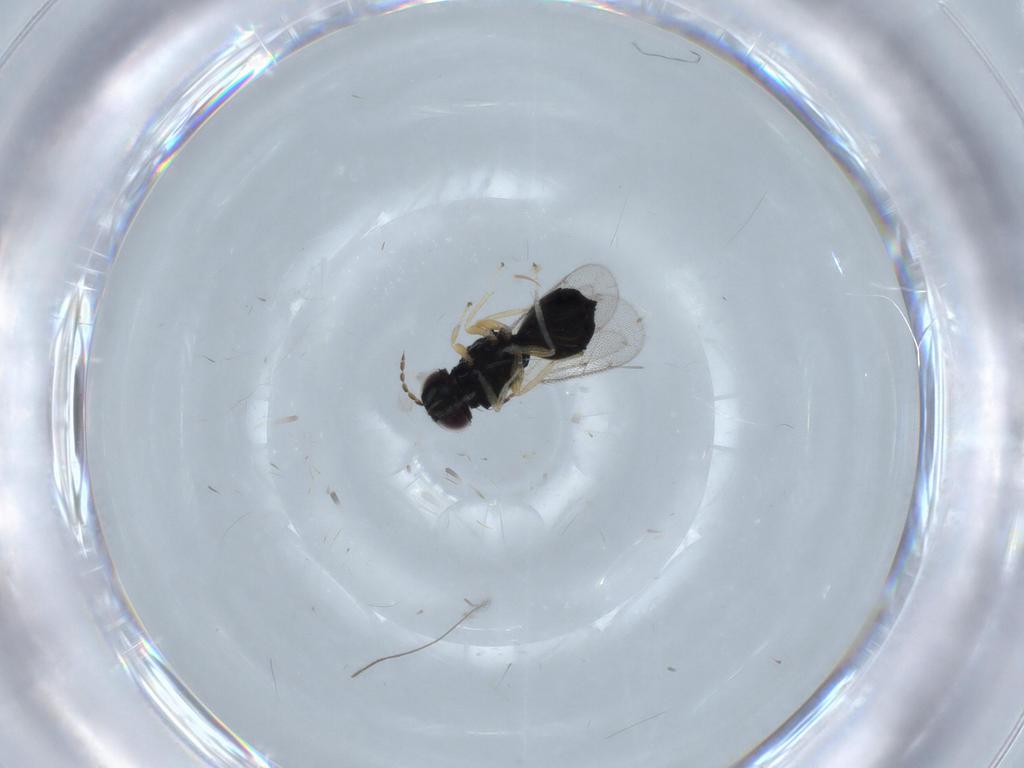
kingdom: Animalia
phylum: Arthropoda
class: Insecta
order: Hymenoptera
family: Eulophidae
